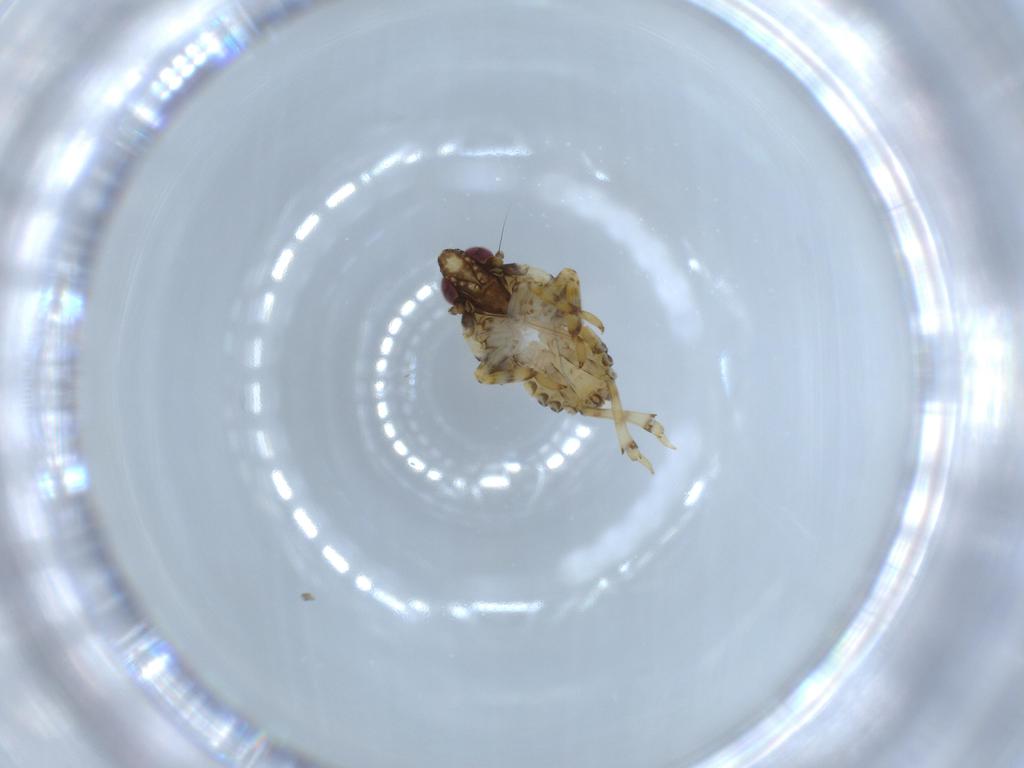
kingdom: Animalia
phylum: Arthropoda
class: Insecta
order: Hemiptera
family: Issidae
